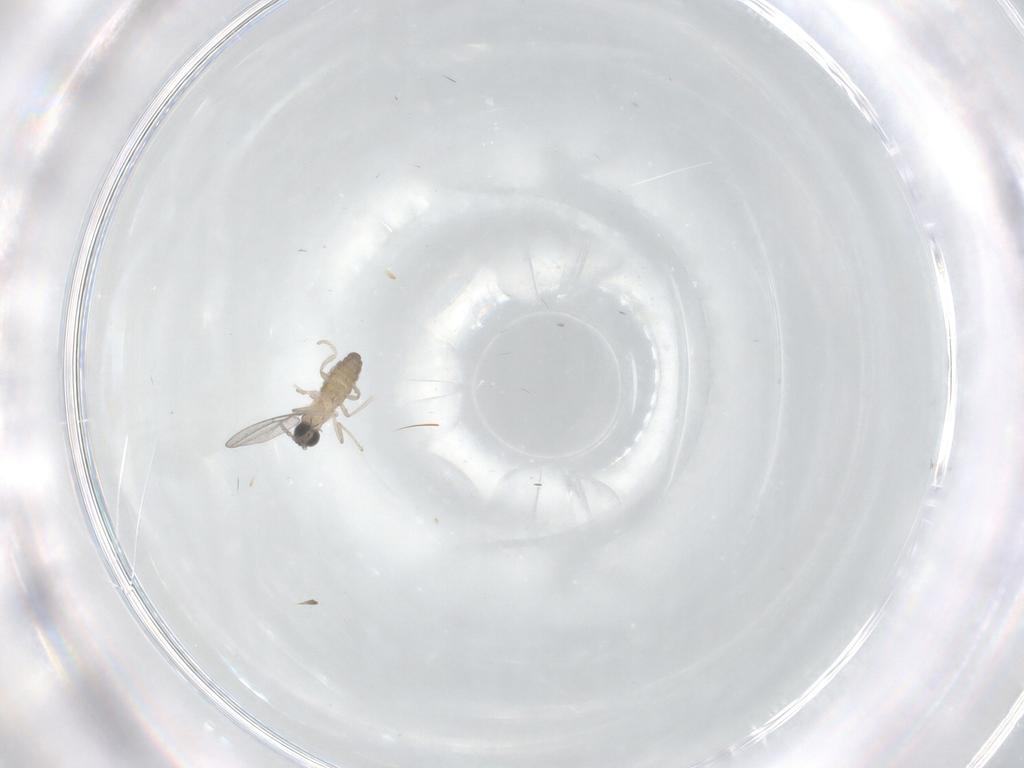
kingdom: Animalia
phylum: Arthropoda
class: Insecta
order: Diptera
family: Cecidomyiidae
